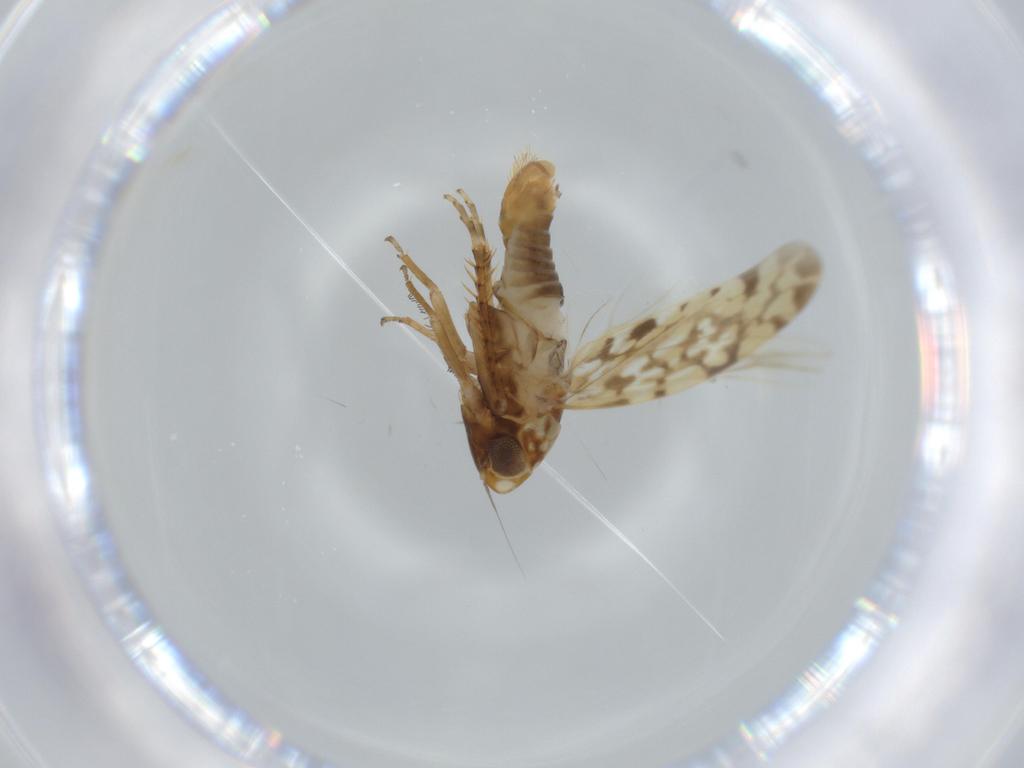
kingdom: Animalia
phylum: Arthropoda
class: Insecta
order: Hemiptera
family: Cicadellidae
